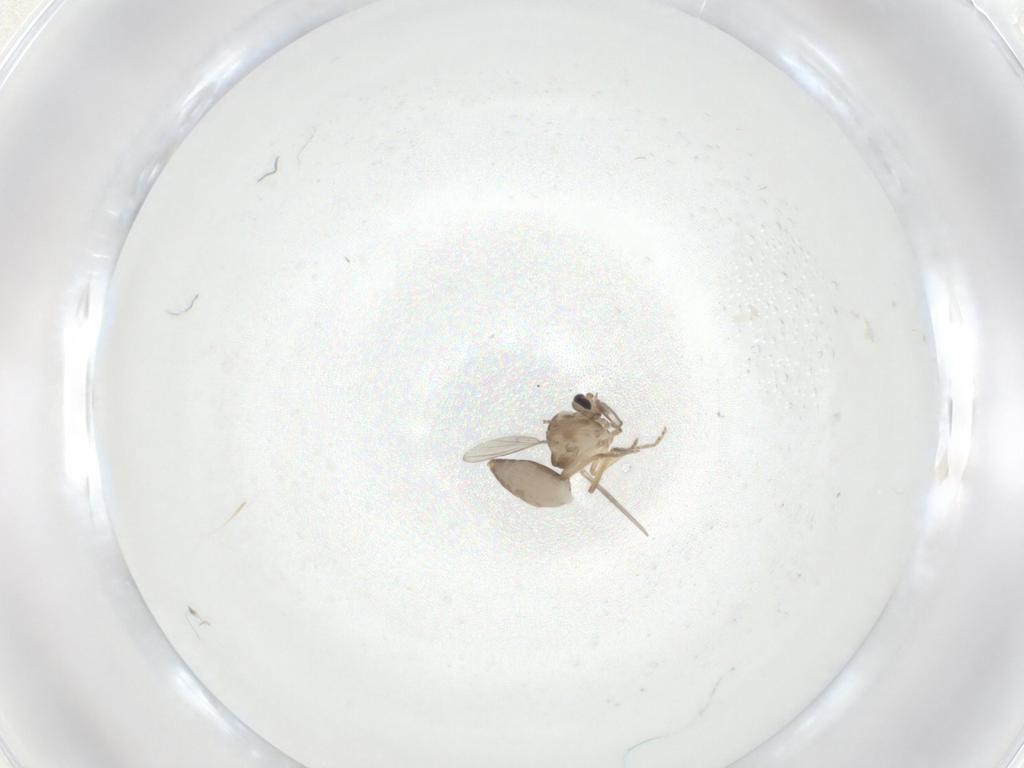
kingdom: Animalia
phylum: Arthropoda
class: Insecta
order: Diptera
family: Ceratopogonidae
